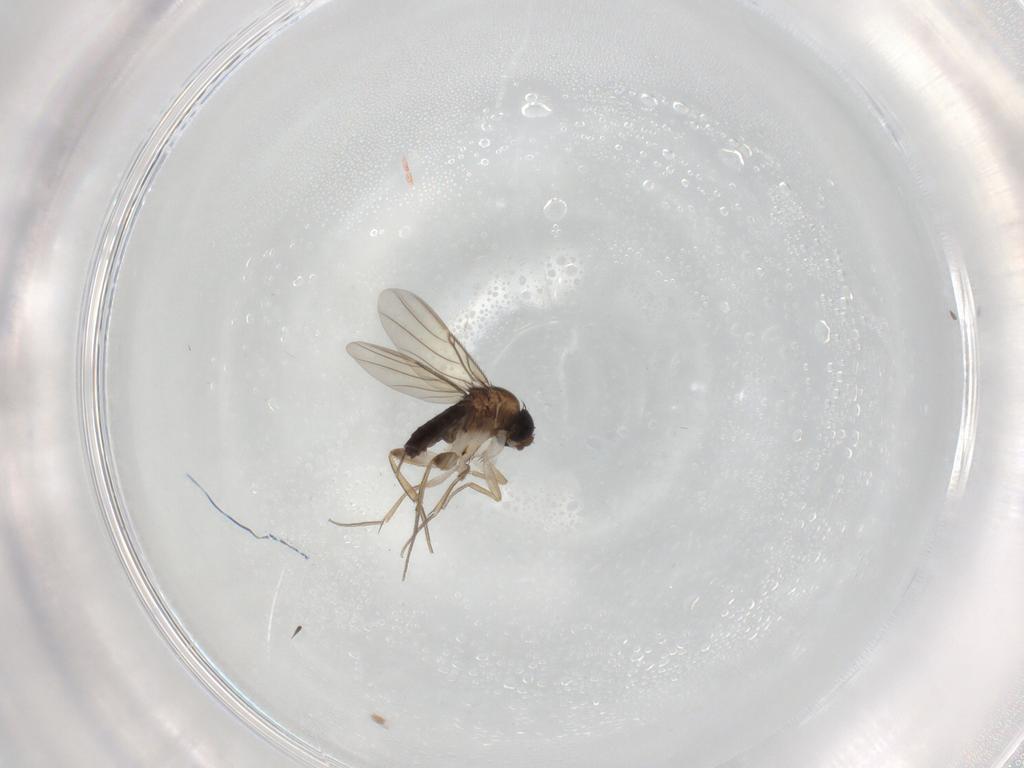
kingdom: Animalia
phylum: Arthropoda
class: Insecta
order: Diptera
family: Phoridae
